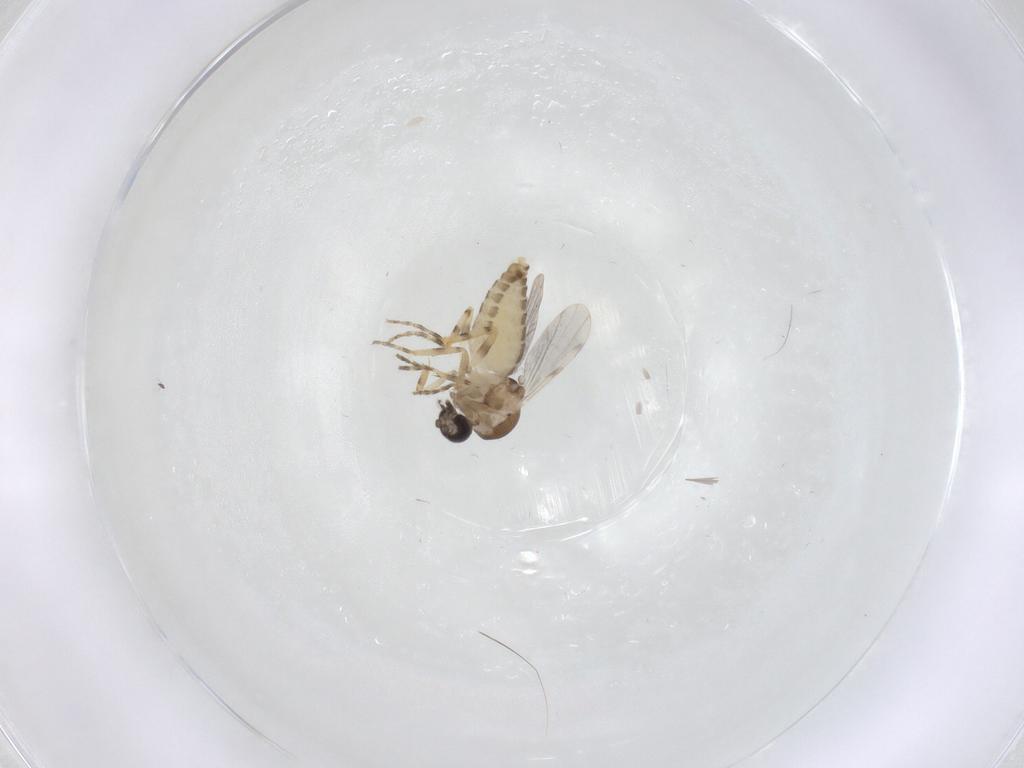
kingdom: Animalia
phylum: Arthropoda
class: Insecta
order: Diptera
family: Ceratopogonidae
